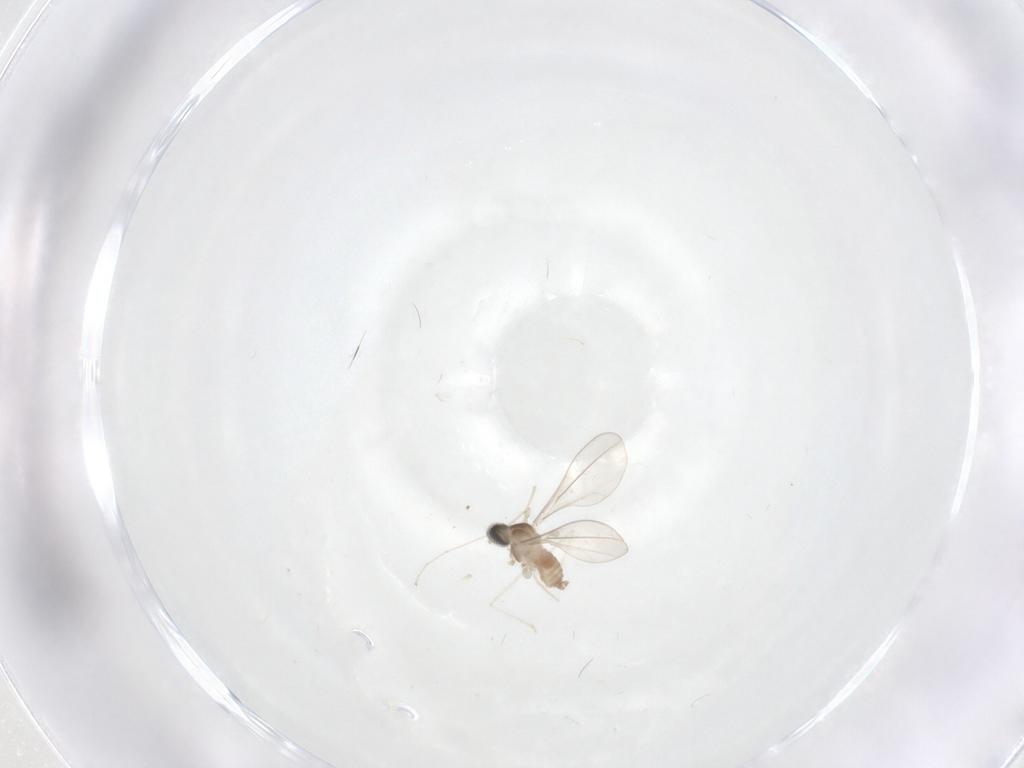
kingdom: Animalia
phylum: Arthropoda
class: Insecta
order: Diptera
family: Cecidomyiidae
